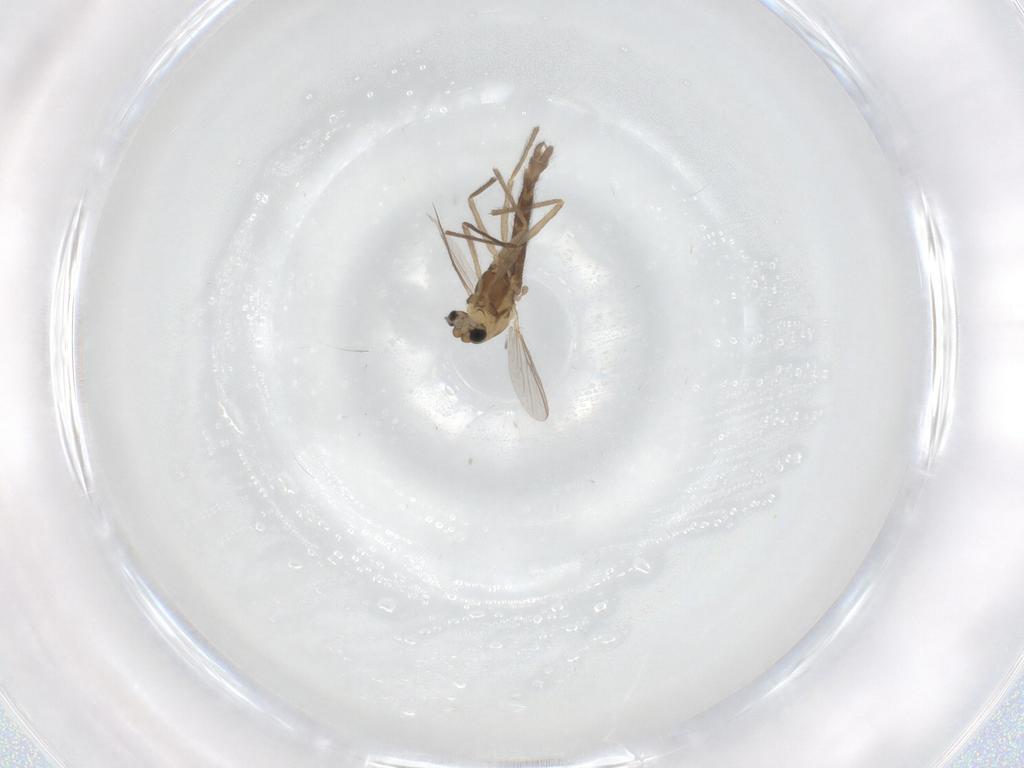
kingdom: Animalia
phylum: Arthropoda
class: Insecta
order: Diptera
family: Chironomidae
